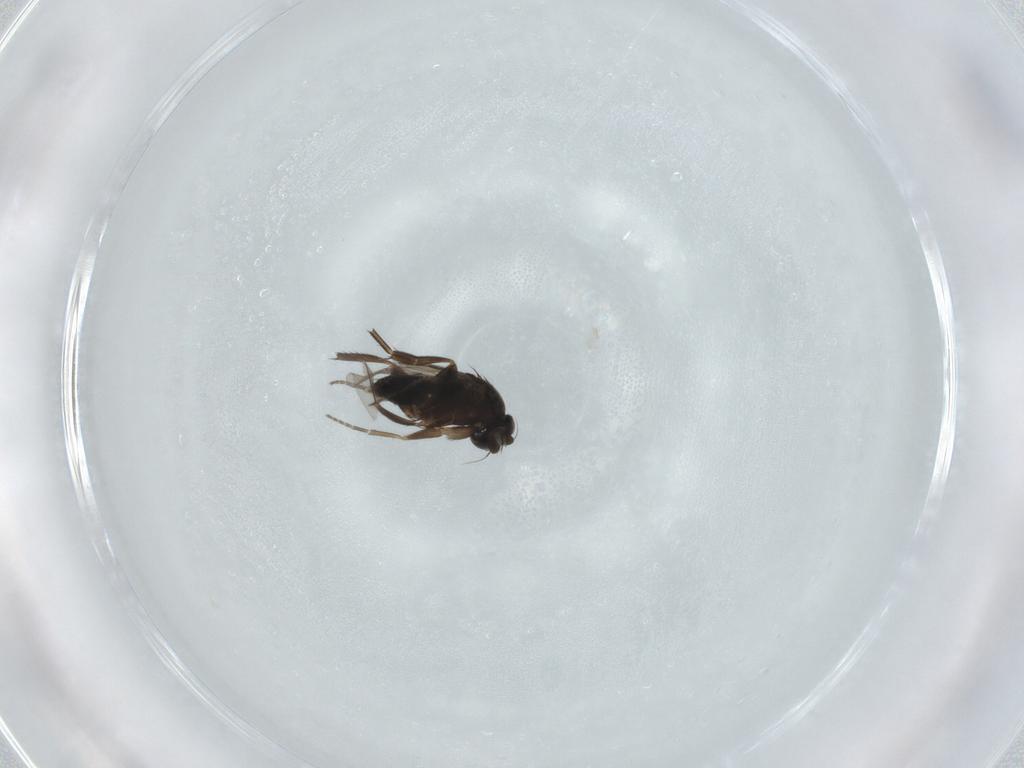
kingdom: Animalia
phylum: Arthropoda
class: Insecta
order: Diptera
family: Phoridae
